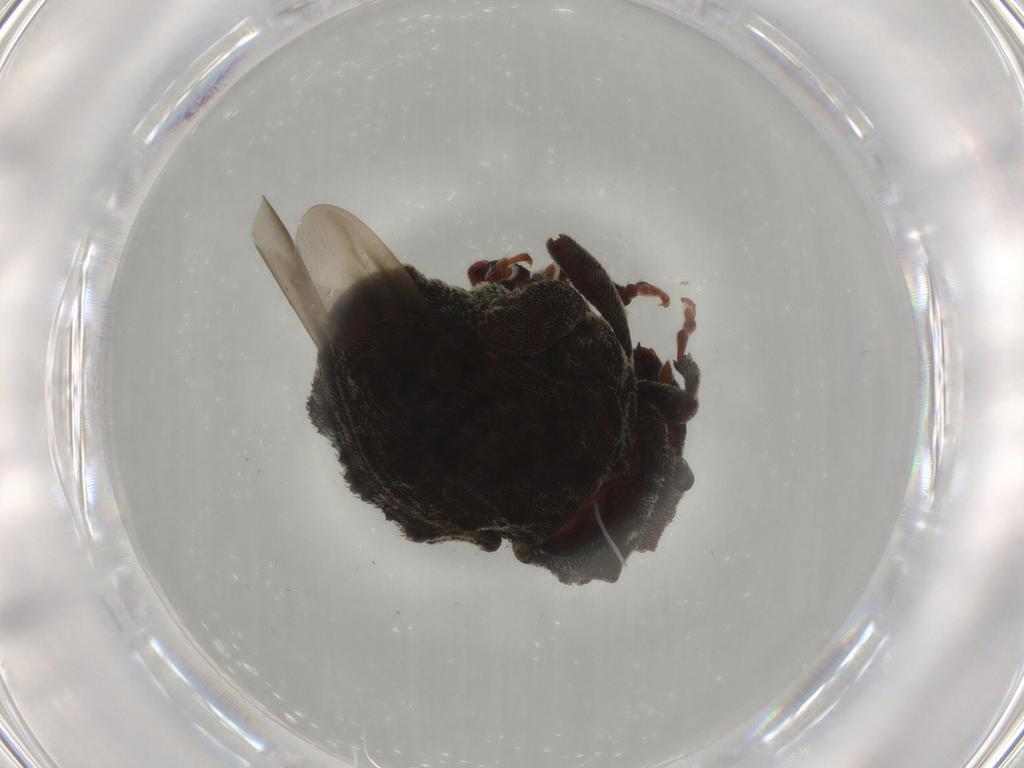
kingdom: Animalia
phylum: Arthropoda
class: Insecta
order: Coleoptera
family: Curculionidae
